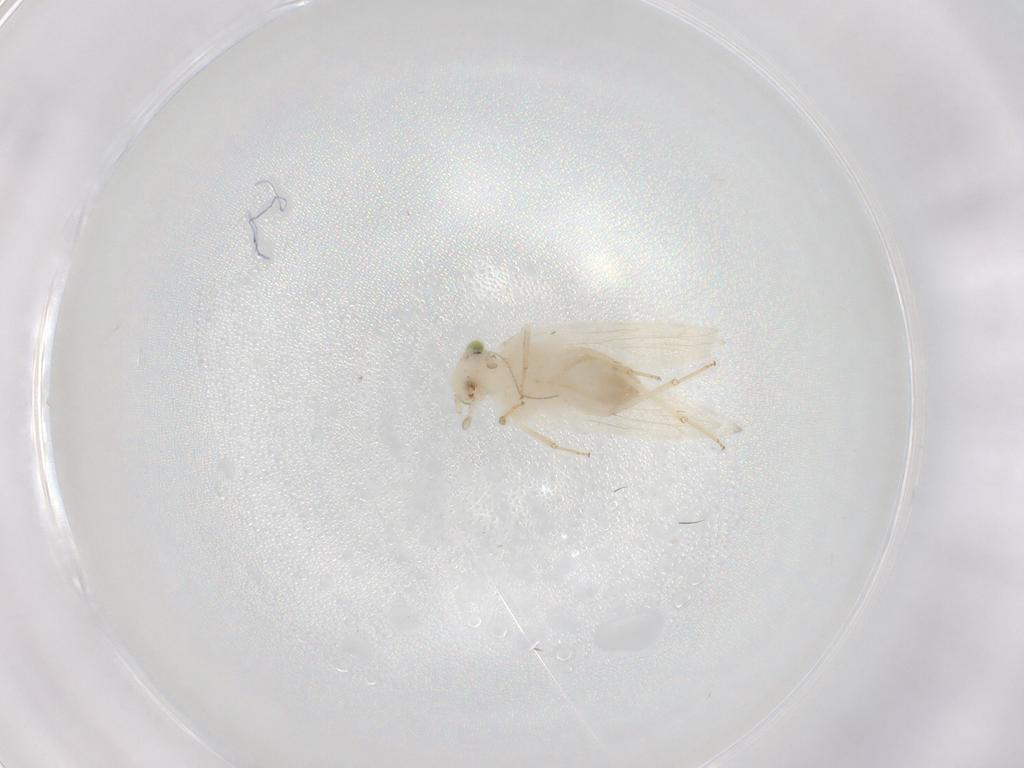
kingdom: Animalia
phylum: Arthropoda
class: Insecta
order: Psocodea
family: Lepidopsocidae
